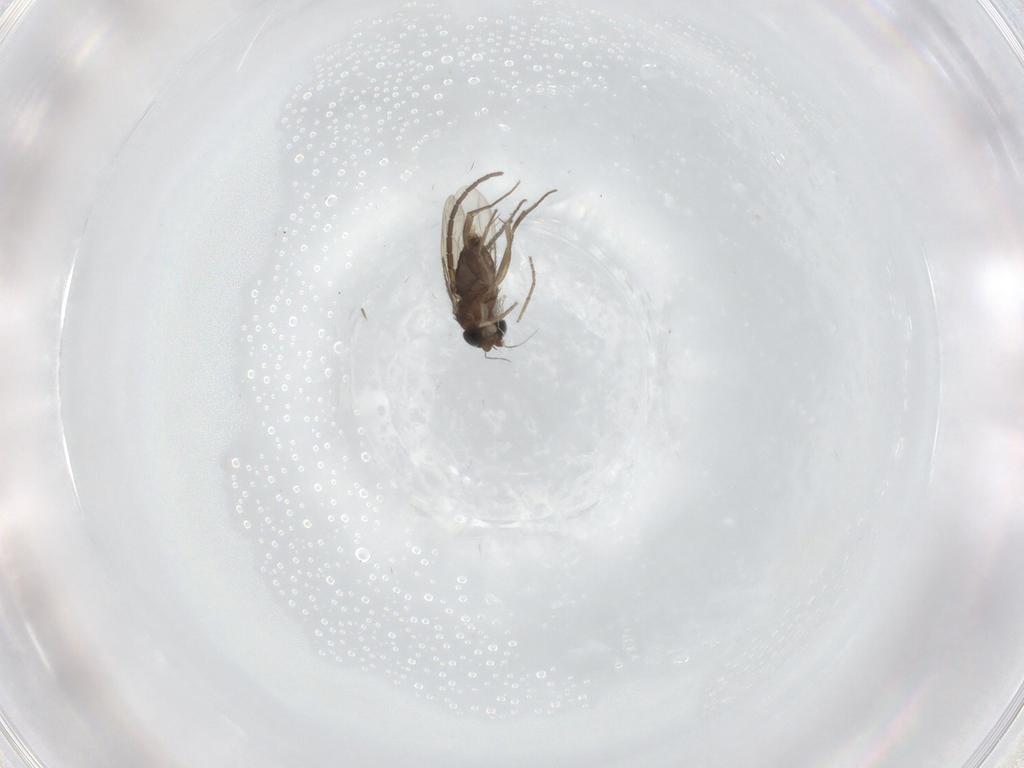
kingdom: Animalia
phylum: Arthropoda
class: Insecta
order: Diptera
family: Sciaridae
